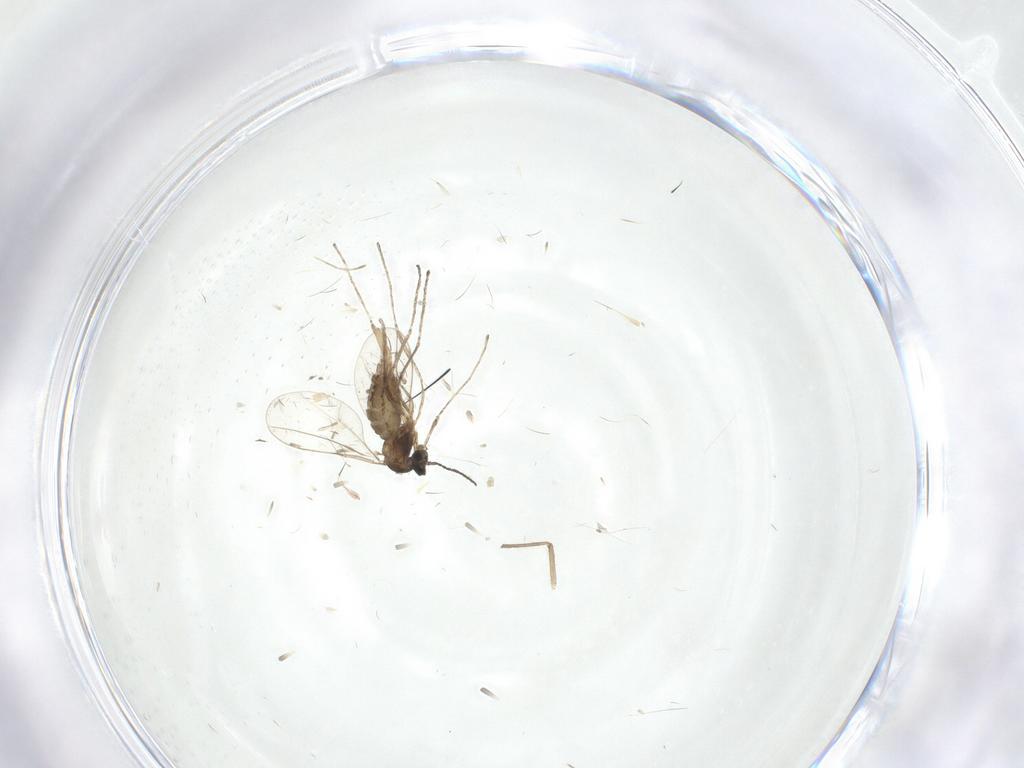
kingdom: Animalia
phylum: Arthropoda
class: Insecta
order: Diptera
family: Cecidomyiidae
